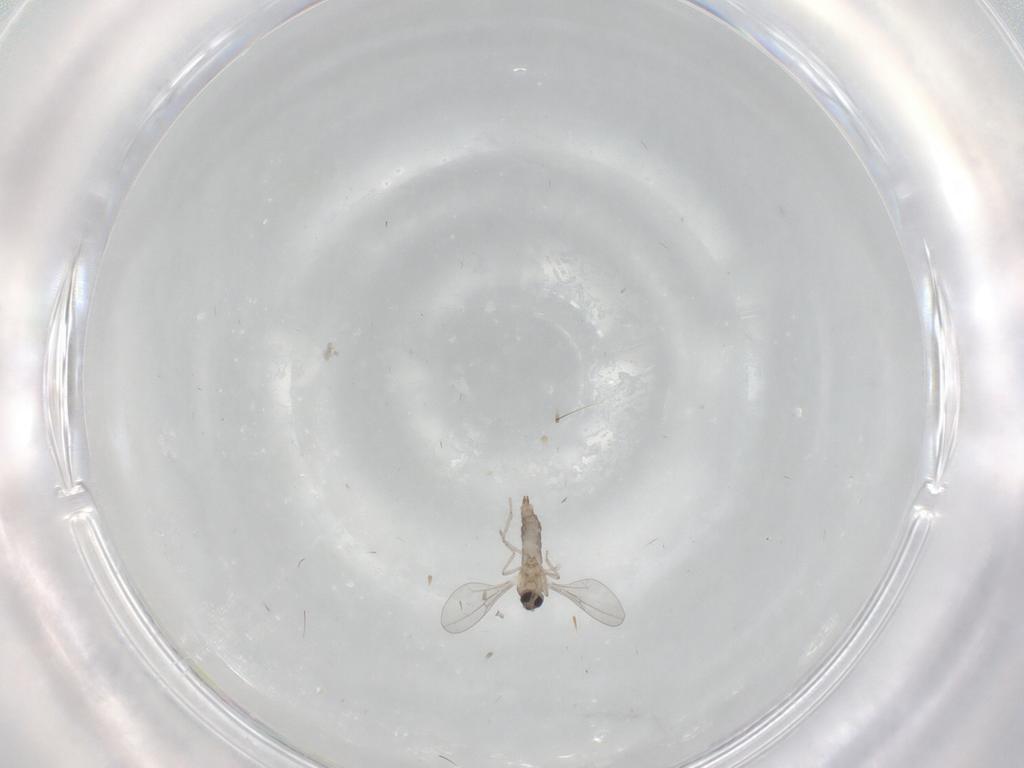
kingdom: Animalia
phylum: Arthropoda
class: Insecta
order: Diptera
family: Cecidomyiidae
